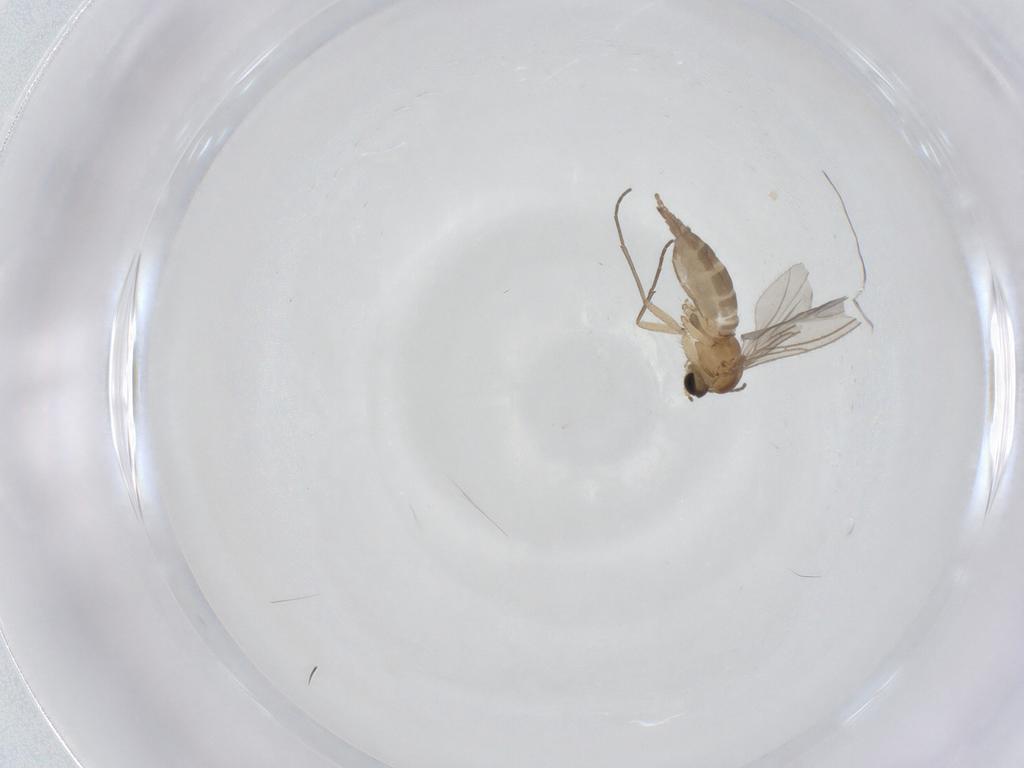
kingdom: Animalia
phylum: Arthropoda
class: Insecta
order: Diptera
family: Sciaridae
